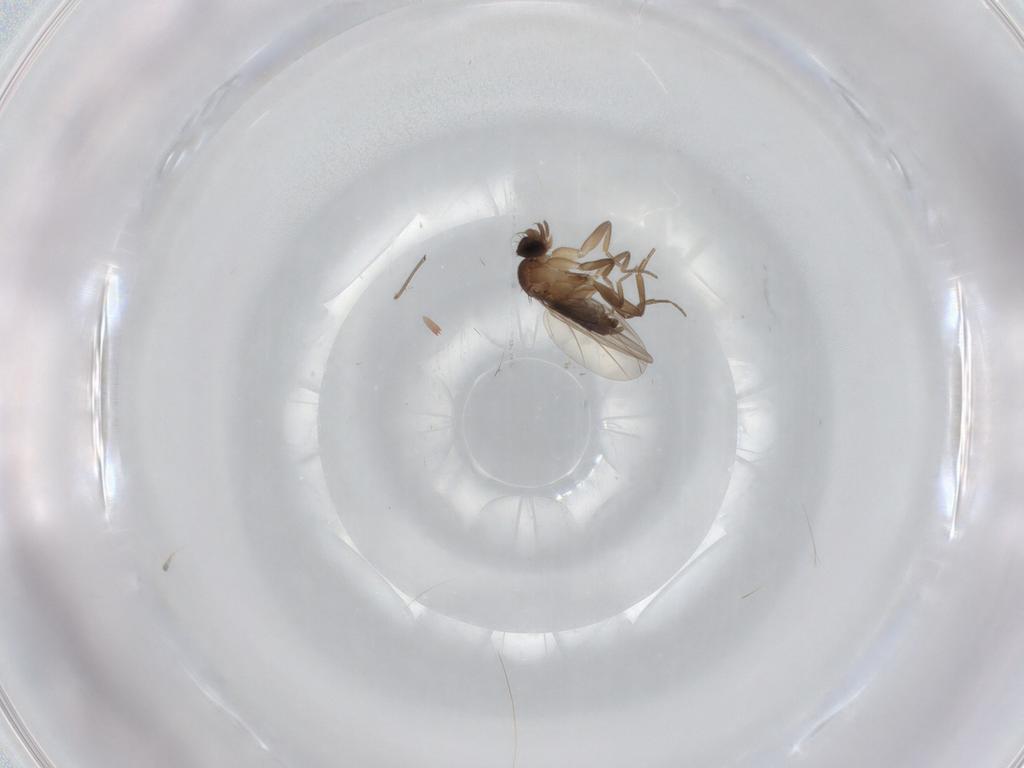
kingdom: Animalia
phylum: Arthropoda
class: Insecta
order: Diptera
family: Phoridae
